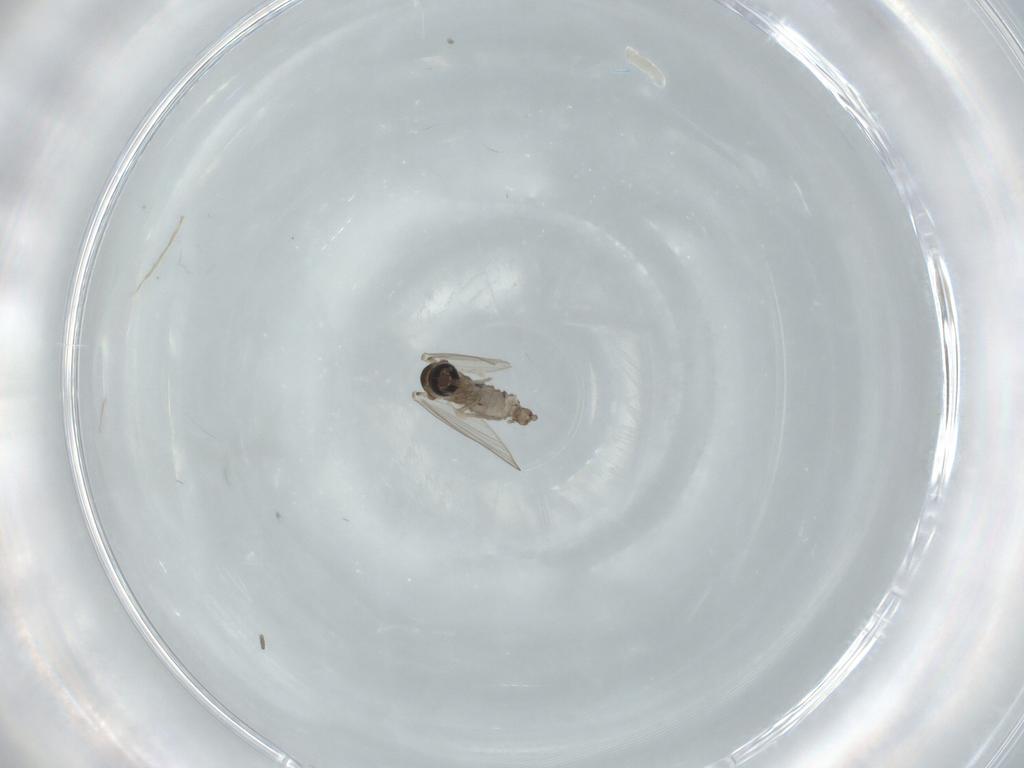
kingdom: Animalia
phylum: Arthropoda
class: Insecta
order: Diptera
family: Psychodidae
